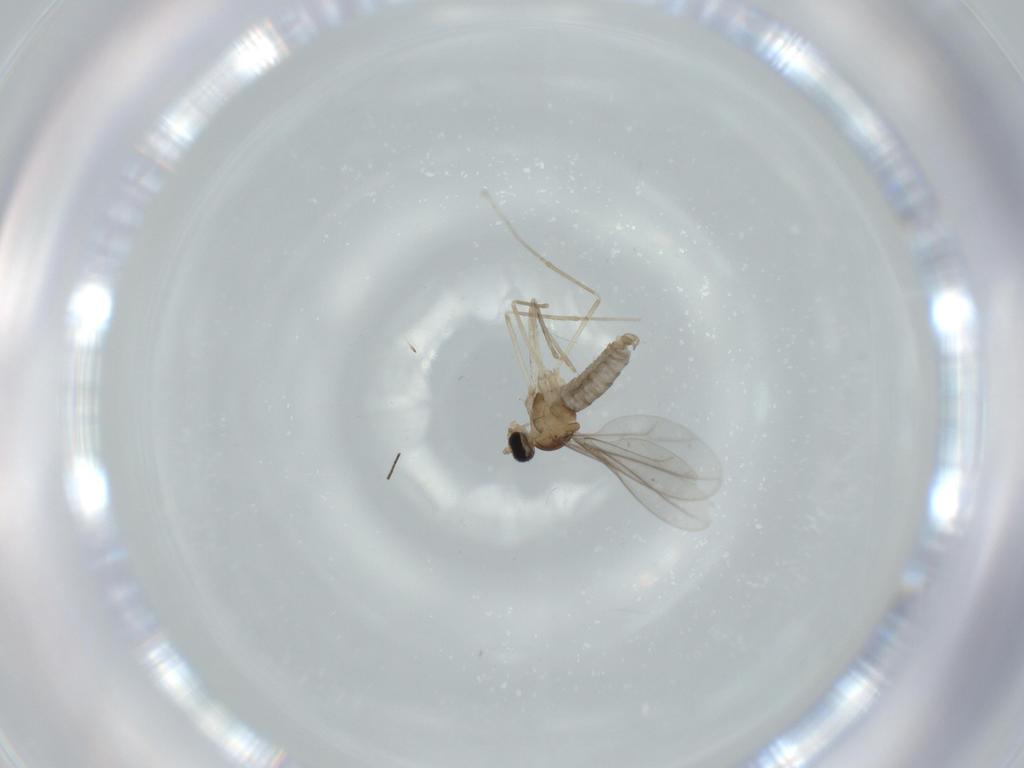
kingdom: Animalia
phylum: Arthropoda
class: Insecta
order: Diptera
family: Cecidomyiidae
